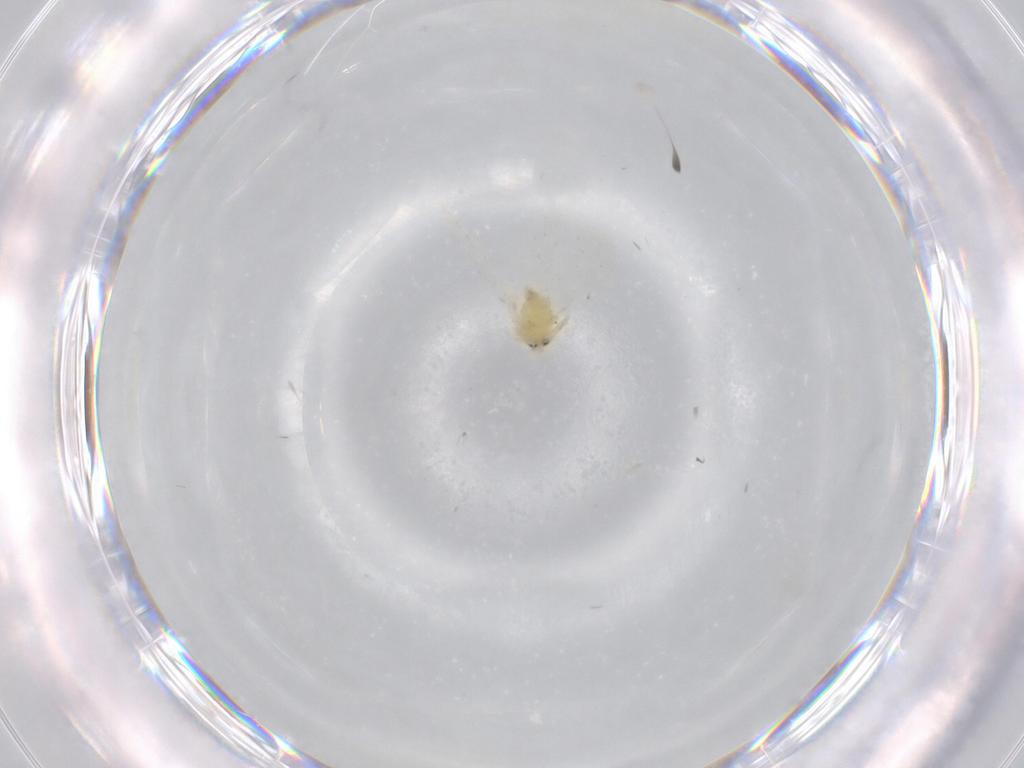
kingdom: Animalia
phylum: Arthropoda
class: Insecta
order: Hemiptera
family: Aleyrodidae
